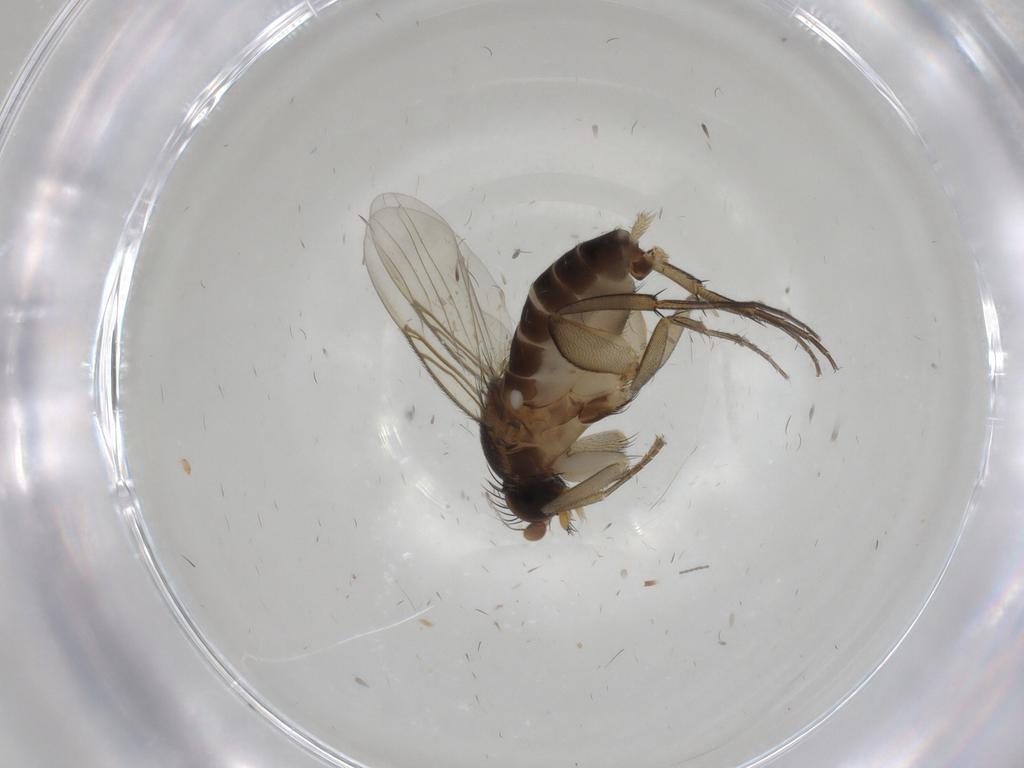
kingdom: Animalia
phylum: Arthropoda
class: Insecta
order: Diptera
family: Phoridae
